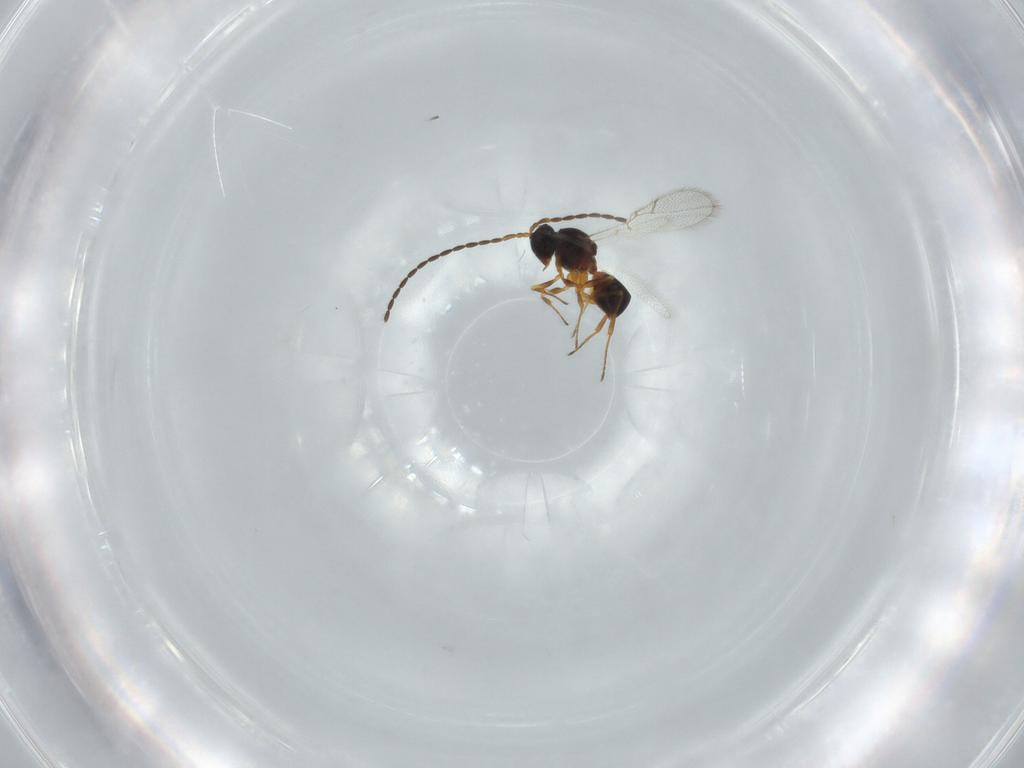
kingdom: Animalia
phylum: Arthropoda
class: Insecta
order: Hymenoptera
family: Figitidae
